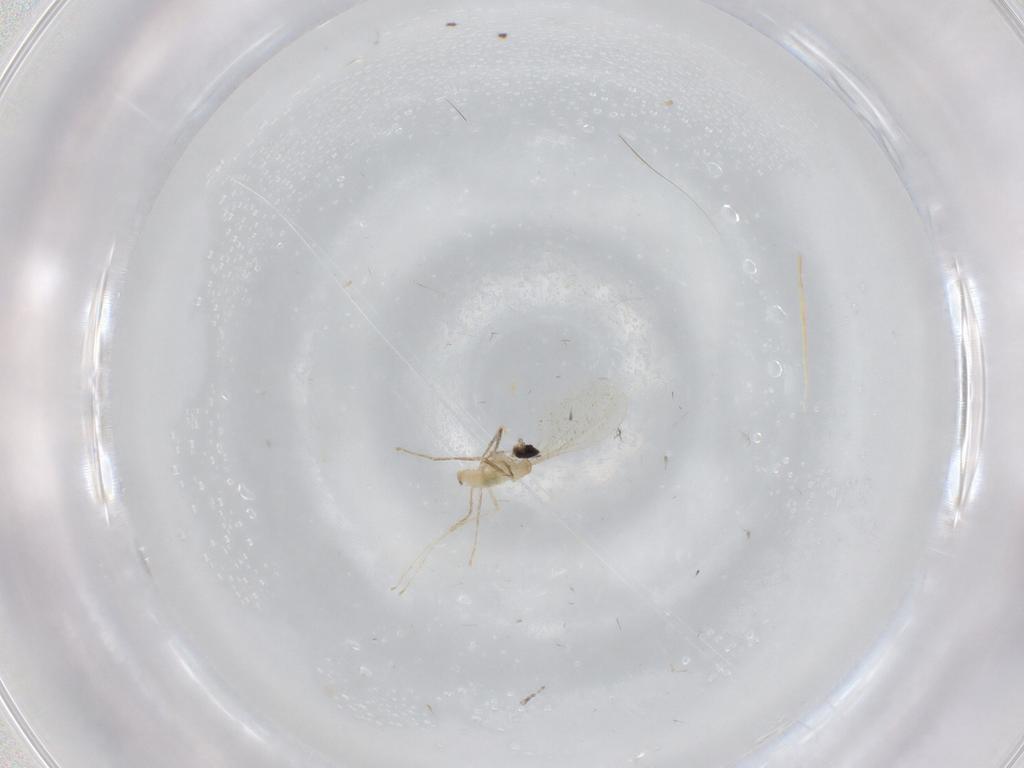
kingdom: Animalia
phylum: Arthropoda
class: Insecta
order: Diptera
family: Cecidomyiidae
